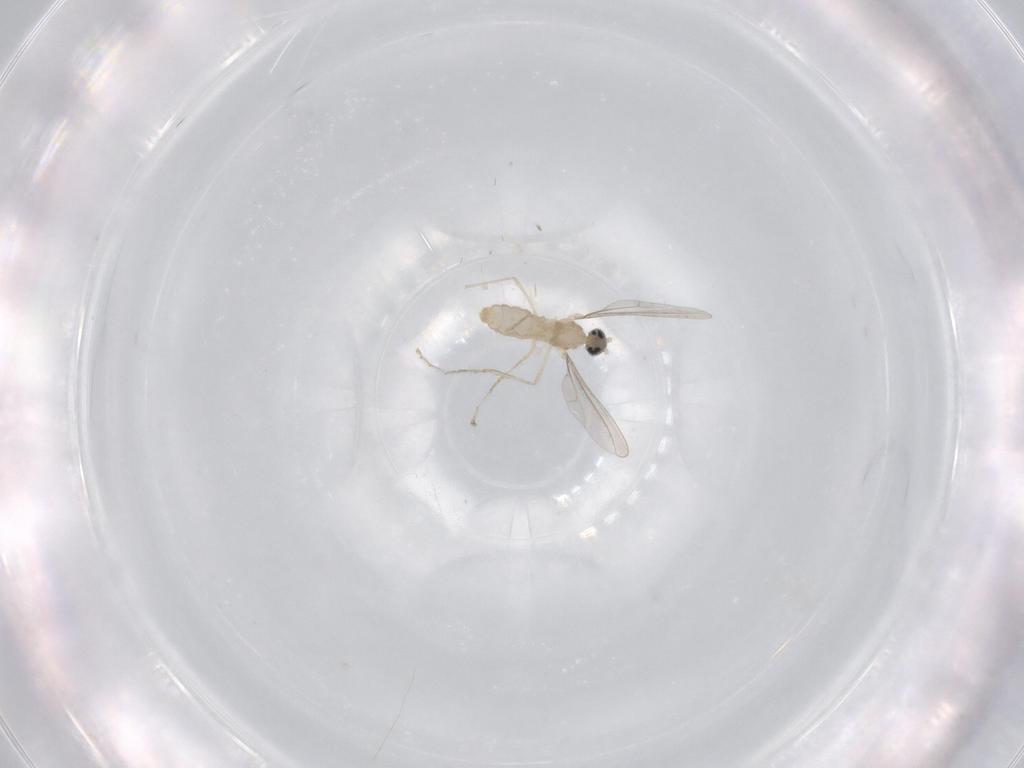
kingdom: Animalia
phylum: Arthropoda
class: Insecta
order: Diptera
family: Cecidomyiidae
